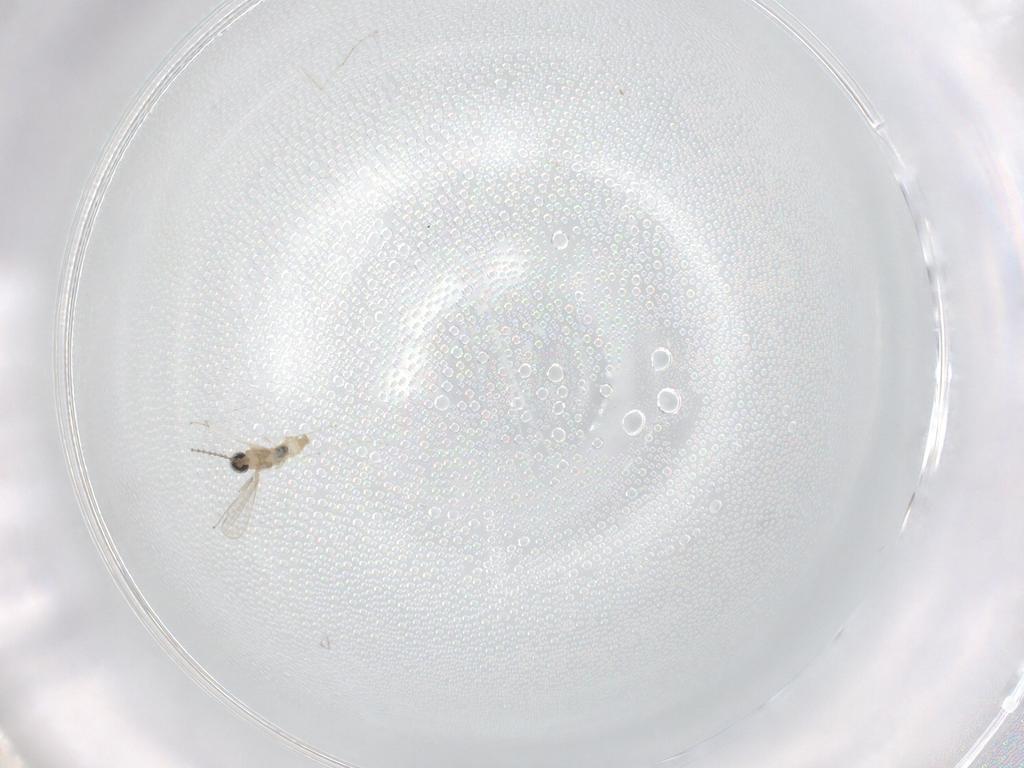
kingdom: Animalia
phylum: Arthropoda
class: Insecta
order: Diptera
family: Cecidomyiidae
